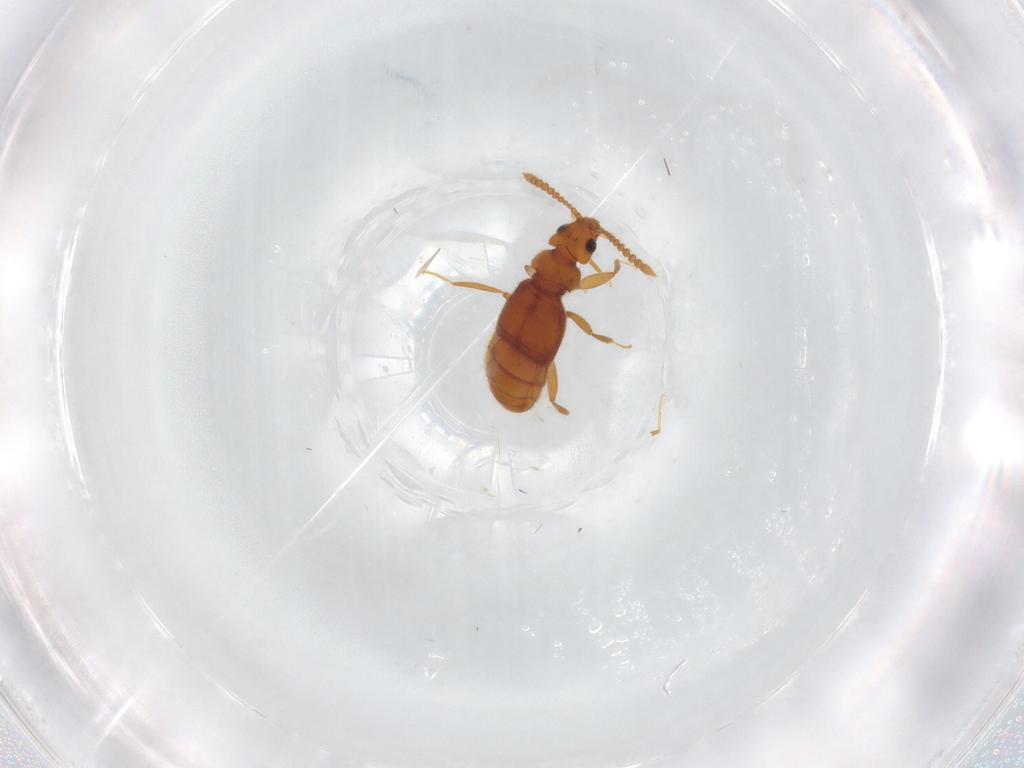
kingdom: Animalia
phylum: Arthropoda
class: Insecta
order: Coleoptera
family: Staphylinidae
